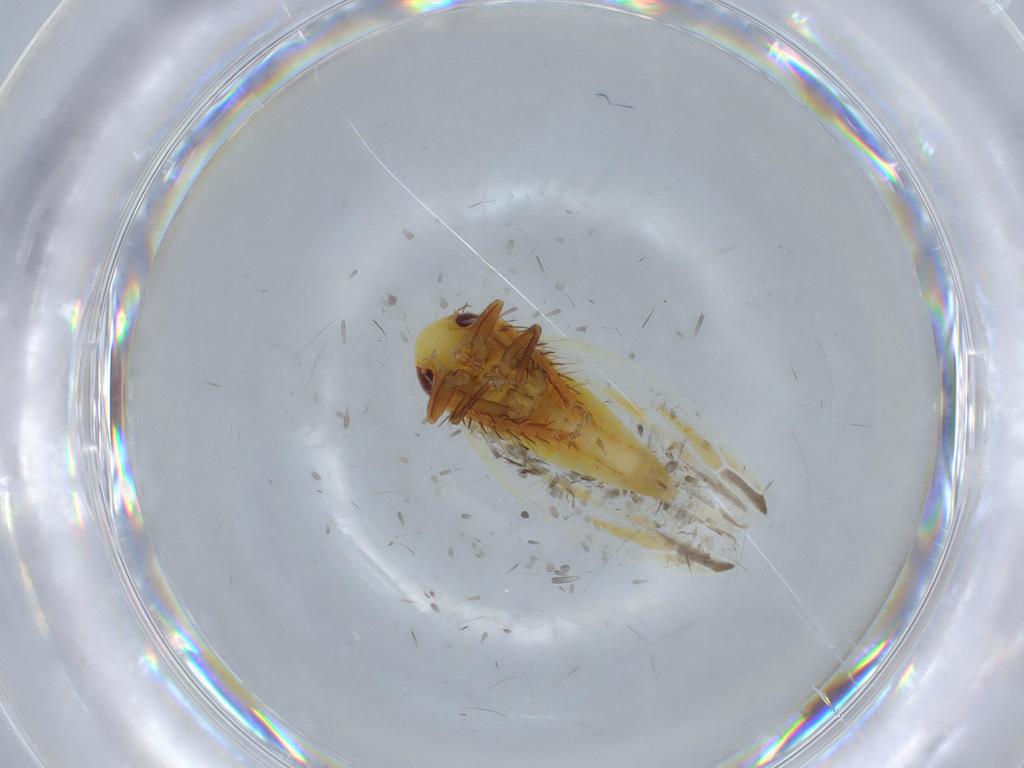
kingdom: Animalia
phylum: Arthropoda
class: Insecta
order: Hemiptera
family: Cicadellidae
